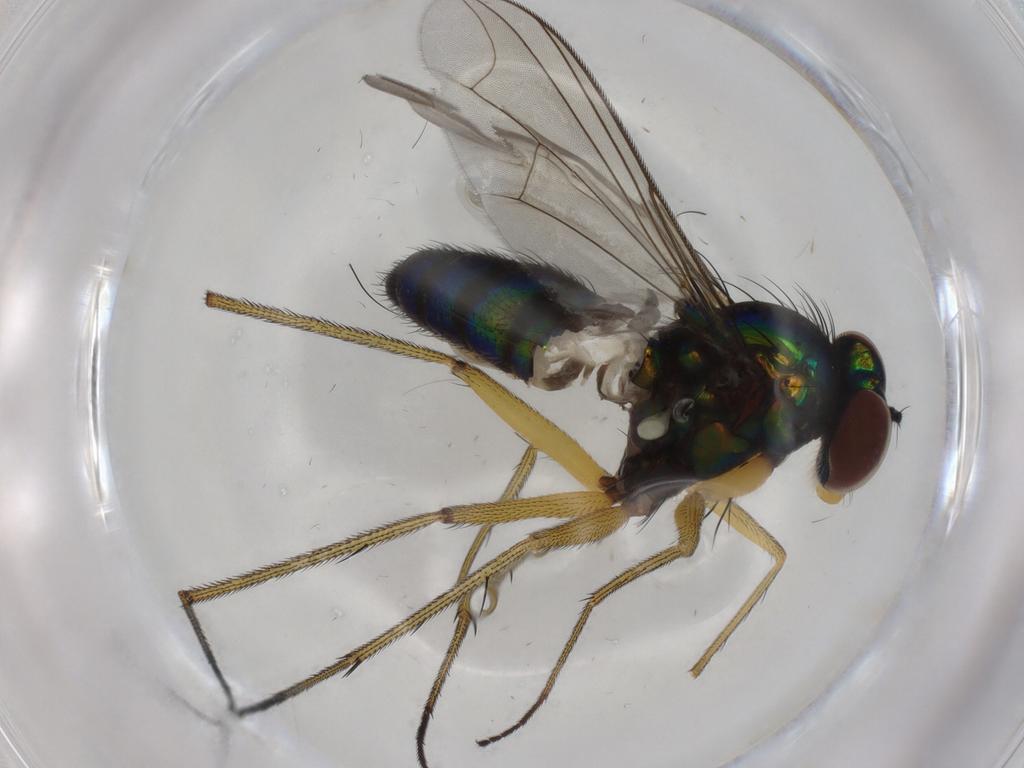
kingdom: Animalia
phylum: Arthropoda
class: Insecta
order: Diptera
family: Dolichopodidae
